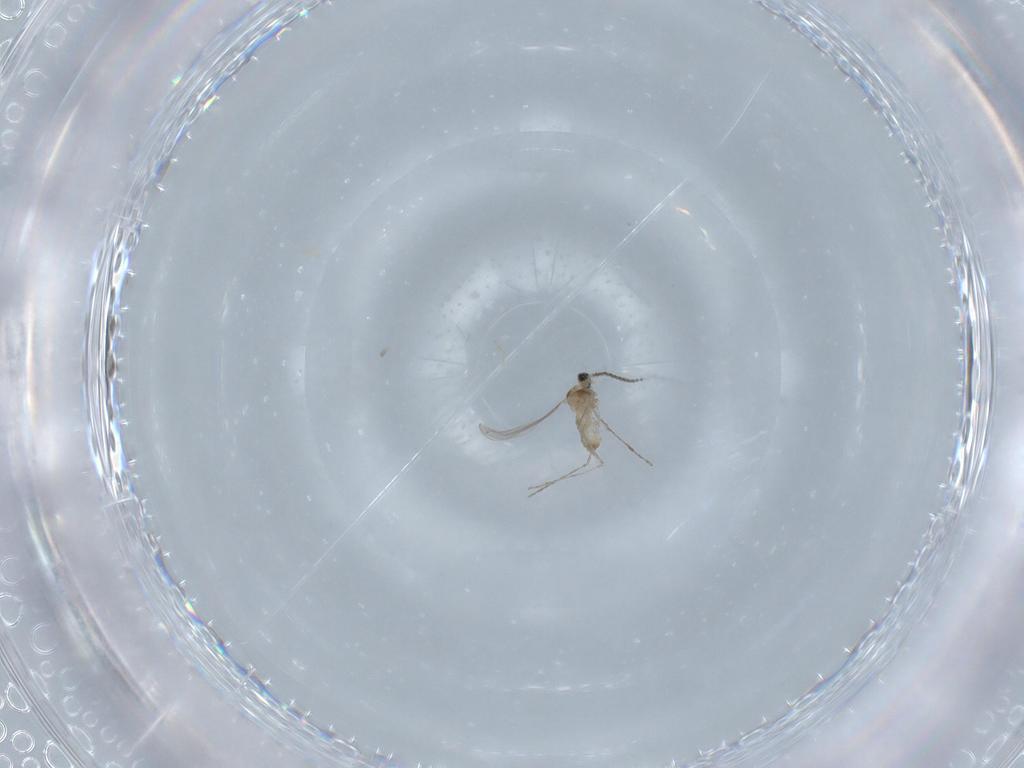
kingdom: Animalia
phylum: Arthropoda
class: Insecta
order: Diptera
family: Chironomidae
